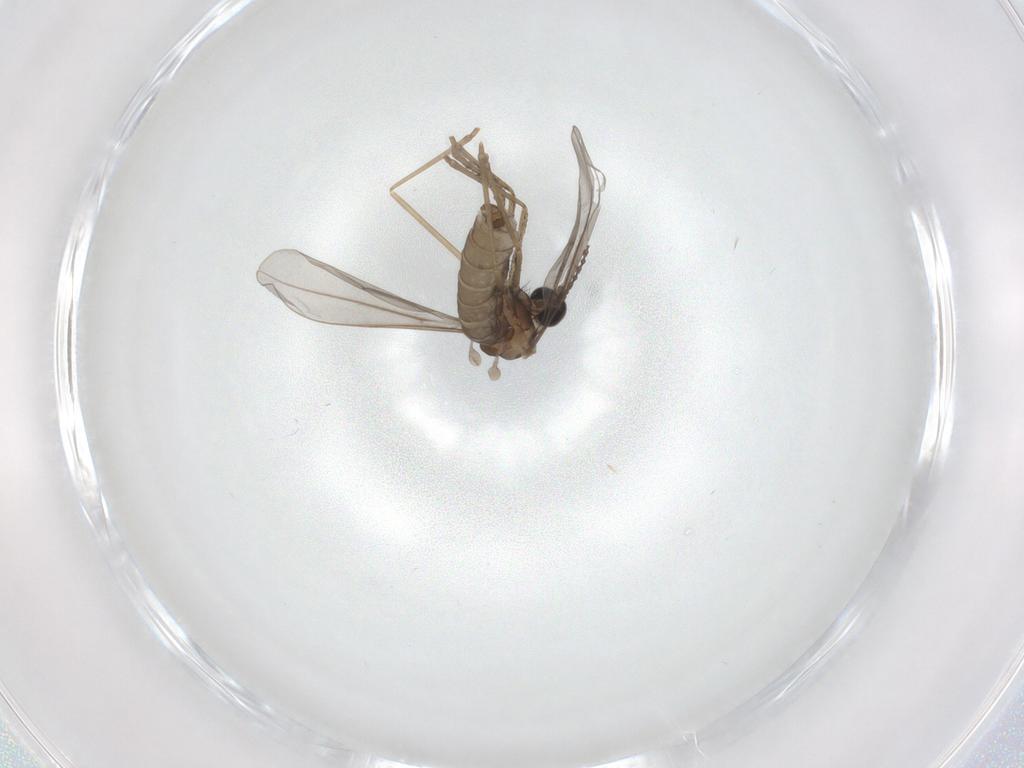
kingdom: Animalia
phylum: Arthropoda
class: Insecta
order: Diptera
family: Cecidomyiidae
